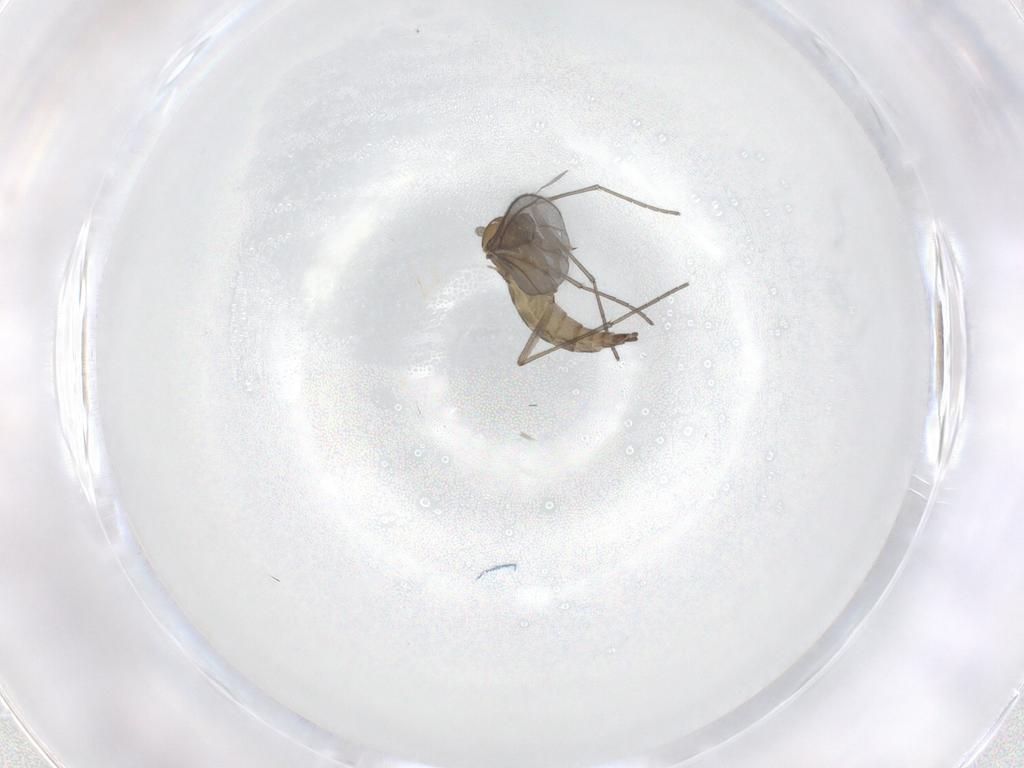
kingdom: Animalia
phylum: Arthropoda
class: Insecta
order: Diptera
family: Sciaridae
